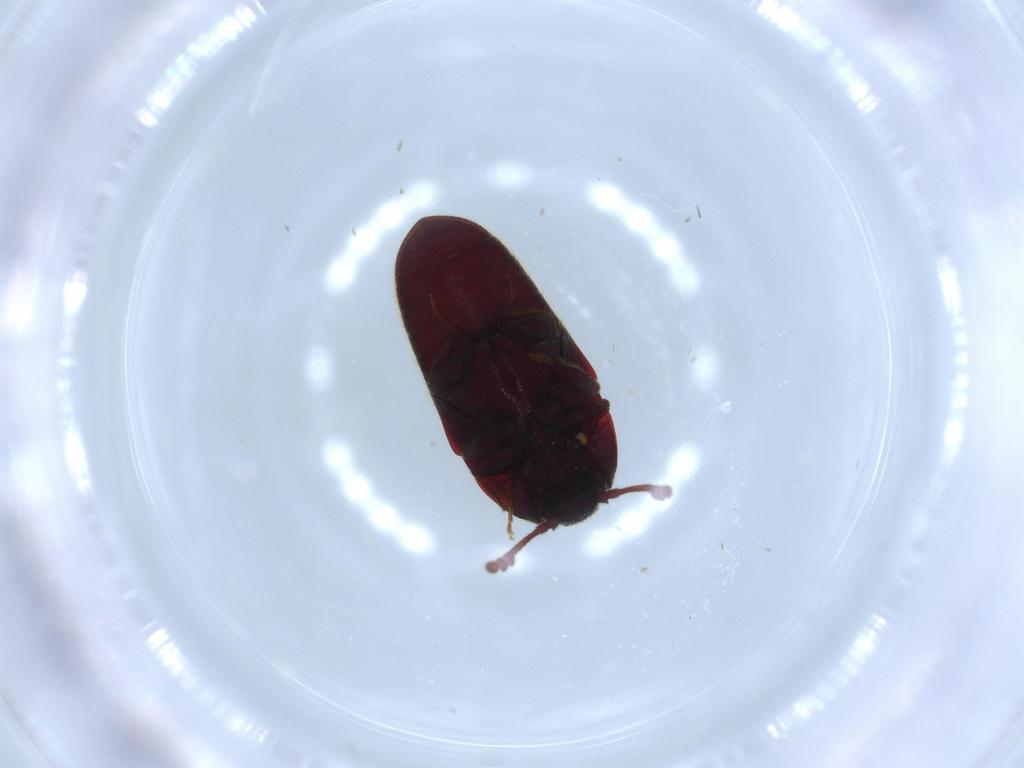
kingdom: Animalia
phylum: Arthropoda
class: Insecta
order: Coleoptera
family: Throscidae
